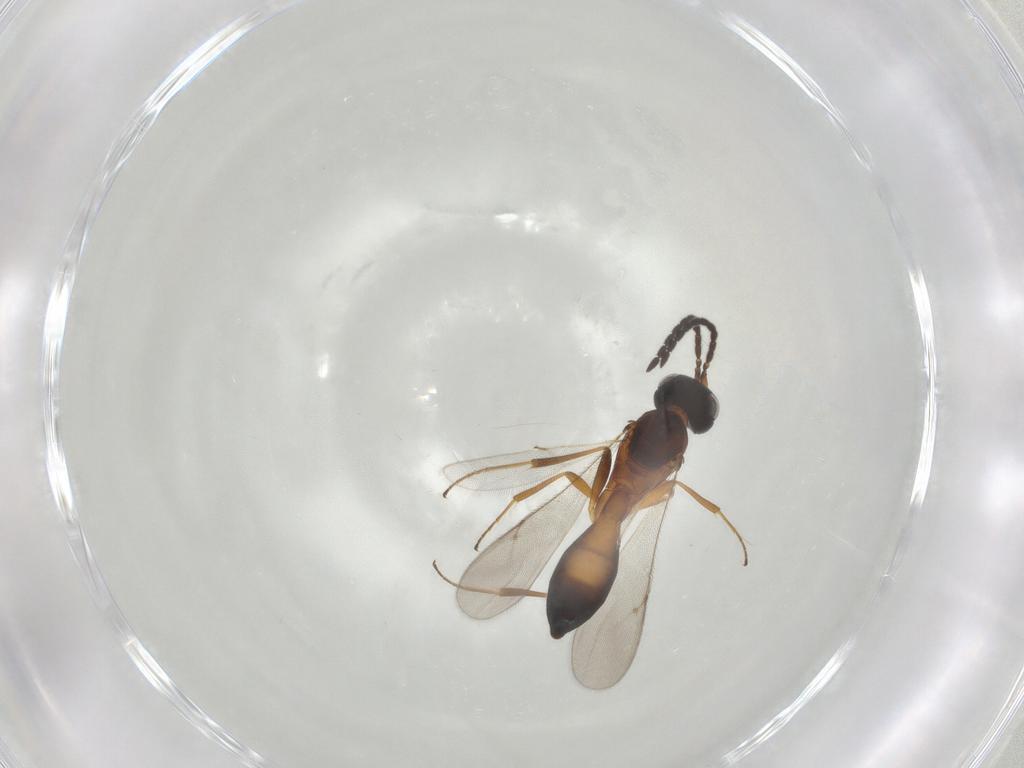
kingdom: Animalia
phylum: Arthropoda
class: Insecta
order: Hymenoptera
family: Scelionidae
